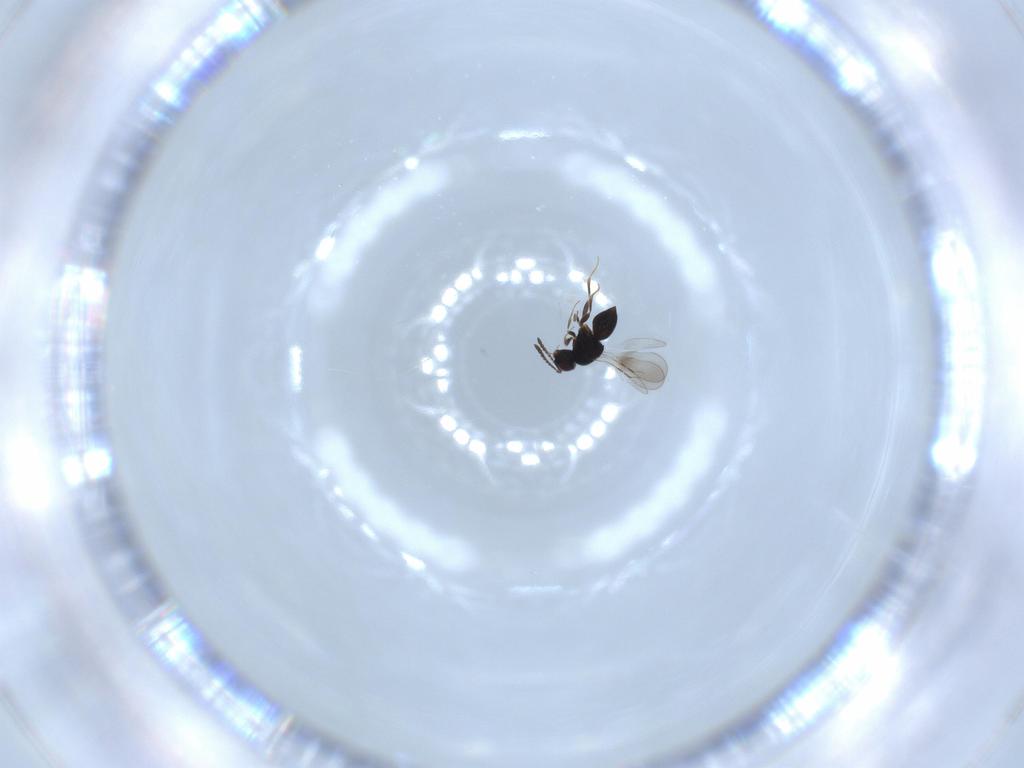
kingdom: Animalia
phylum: Arthropoda
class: Insecta
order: Hymenoptera
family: Ceraphronidae
